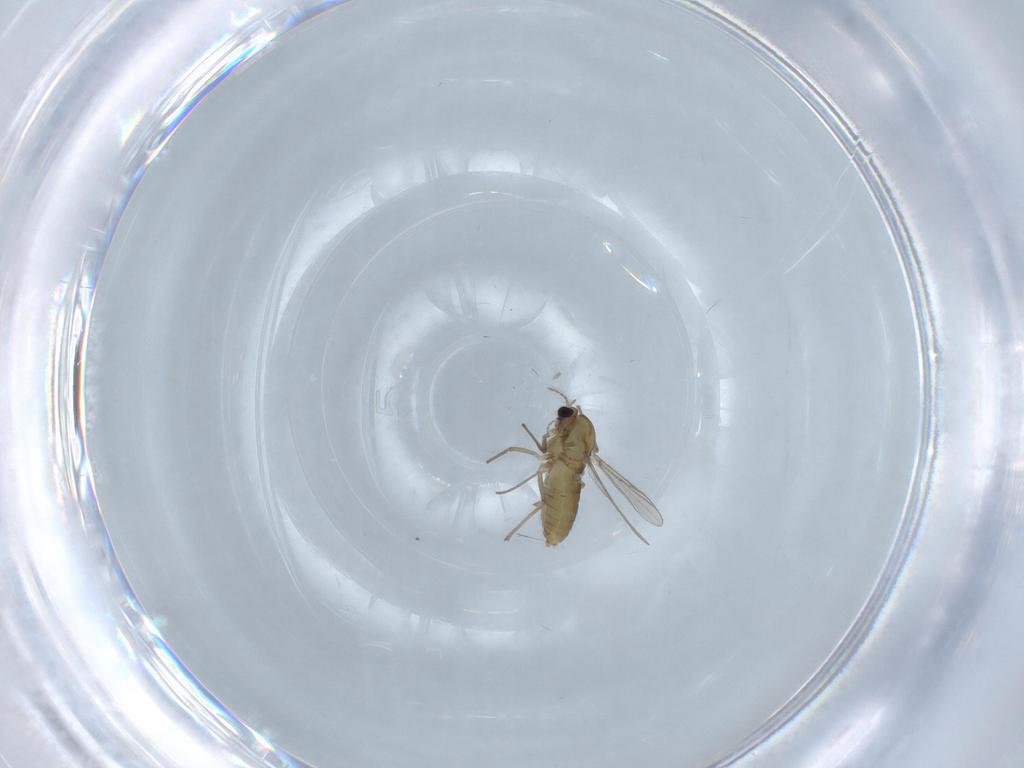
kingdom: Animalia
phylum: Arthropoda
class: Insecta
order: Diptera
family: Chironomidae
